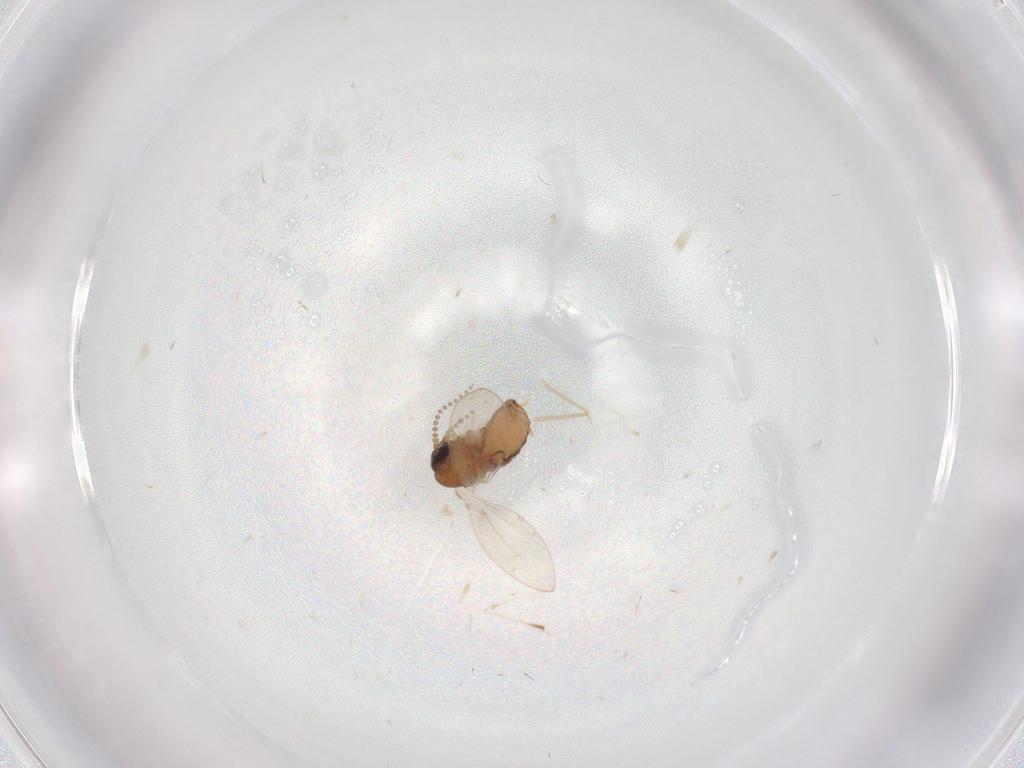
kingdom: Animalia
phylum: Arthropoda
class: Insecta
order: Diptera
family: Psychodidae
